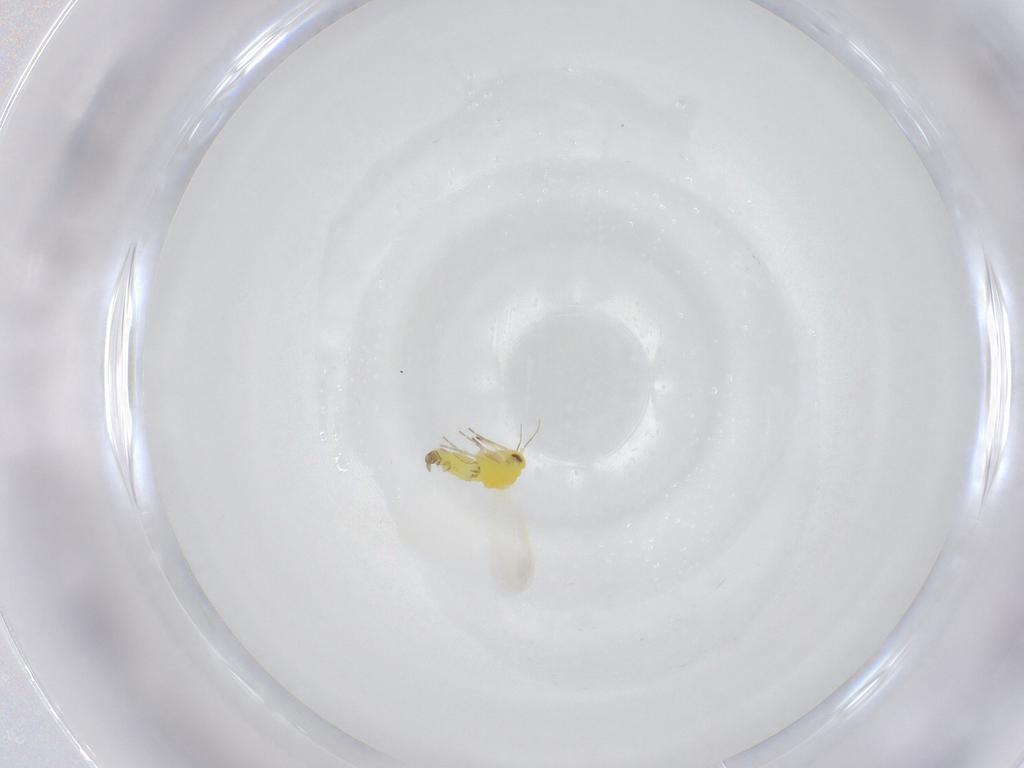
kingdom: Animalia
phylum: Arthropoda
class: Insecta
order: Hemiptera
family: Aleyrodidae
